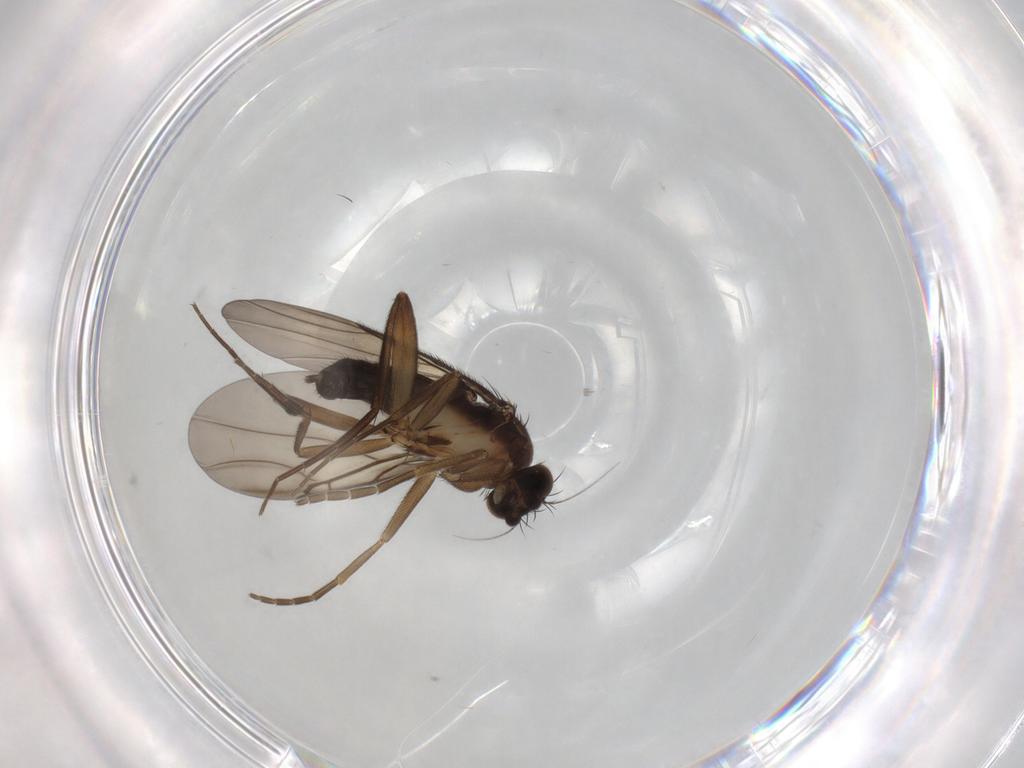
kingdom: Animalia
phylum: Arthropoda
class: Insecta
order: Diptera
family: Phoridae
